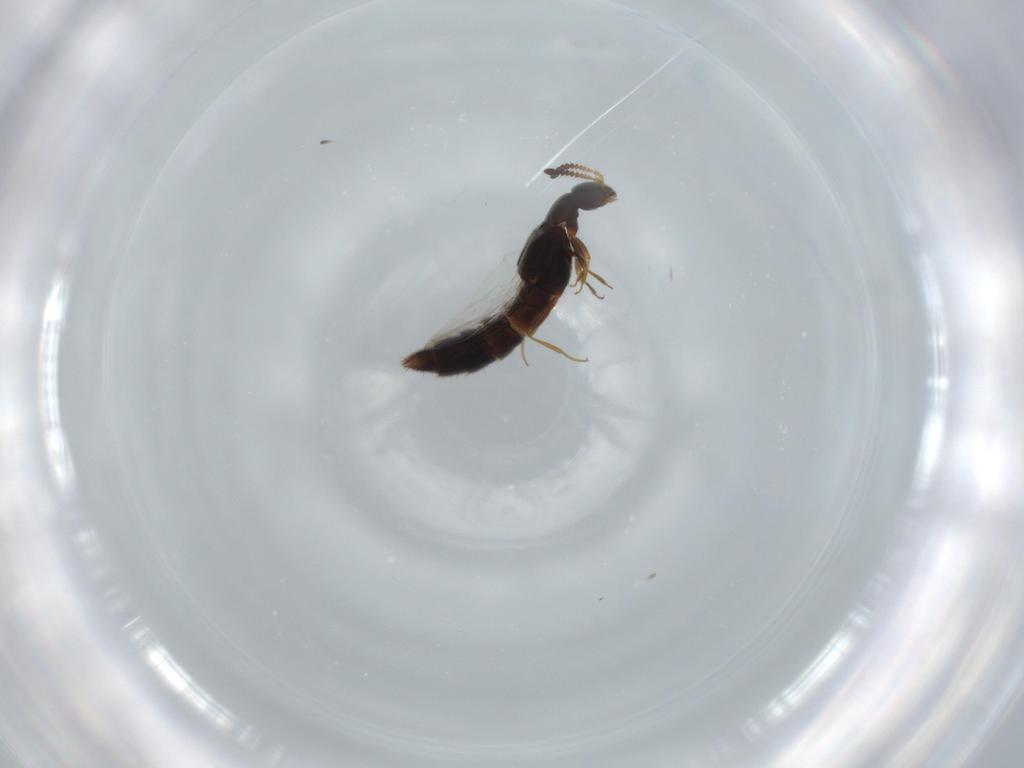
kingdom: Animalia
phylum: Arthropoda
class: Insecta
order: Coleoptera
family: Staphylinidae
